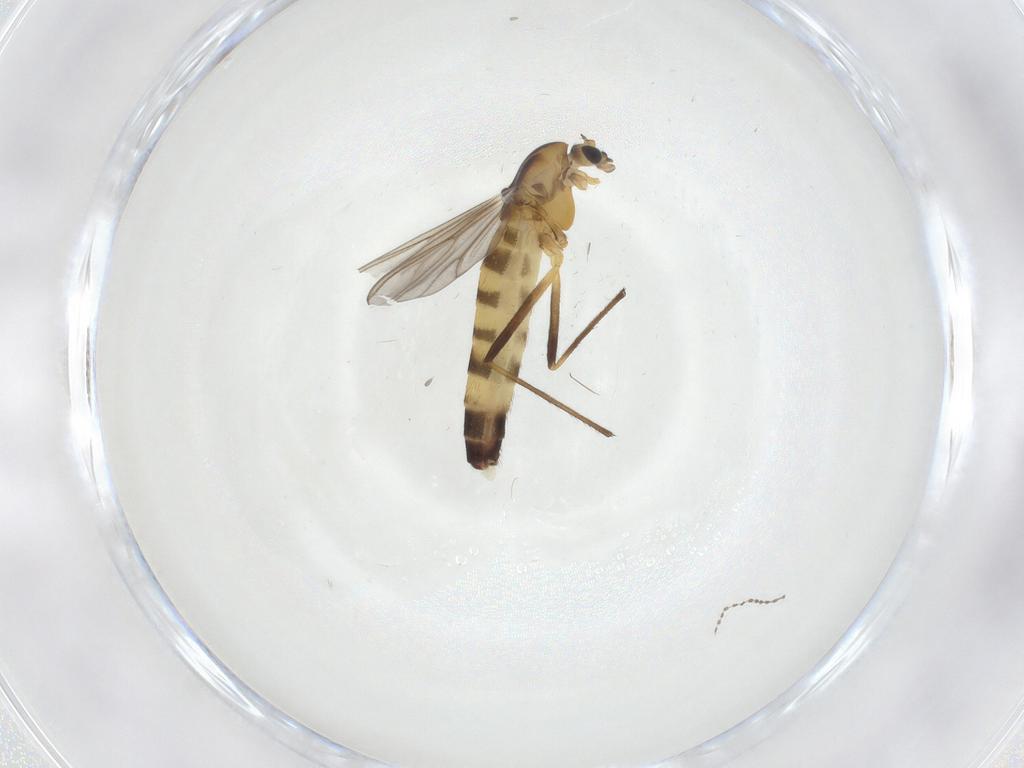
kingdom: Animalia
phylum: Arthropoda
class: Insecta
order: Diptera
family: Chironomidae
